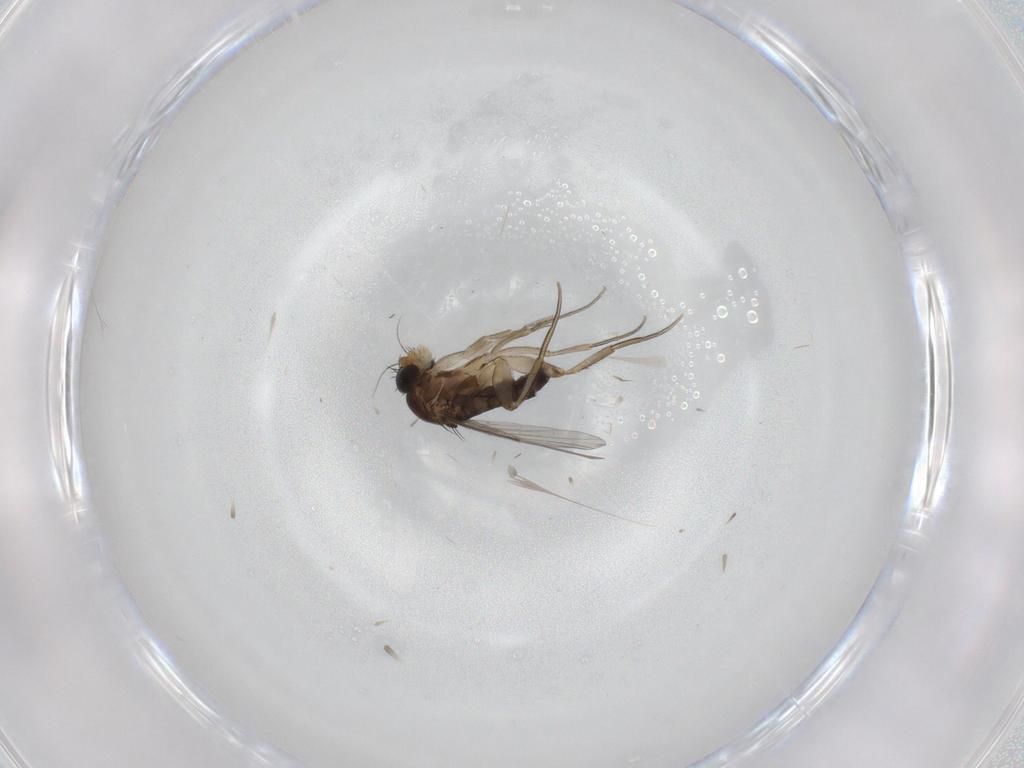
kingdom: Animalia
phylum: Arthropoda
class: Insecta
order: Diptera
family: Phoridae
